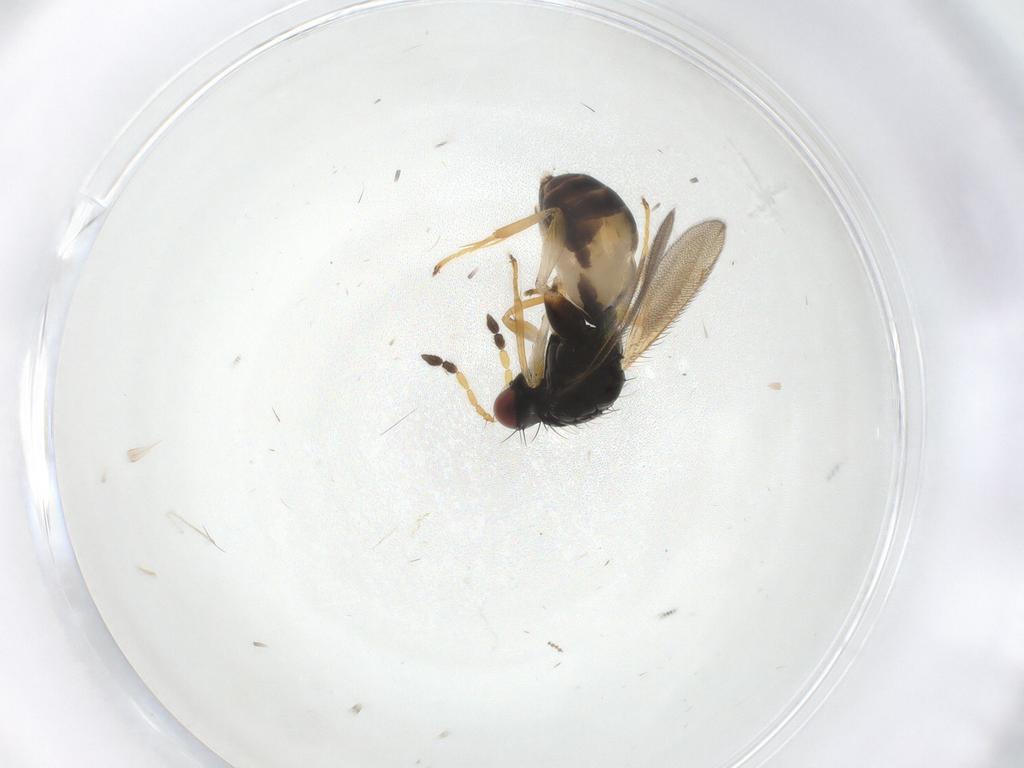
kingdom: Animalia
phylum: Arthropoda
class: Insecta
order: Hymenoptera
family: Eulophidae
